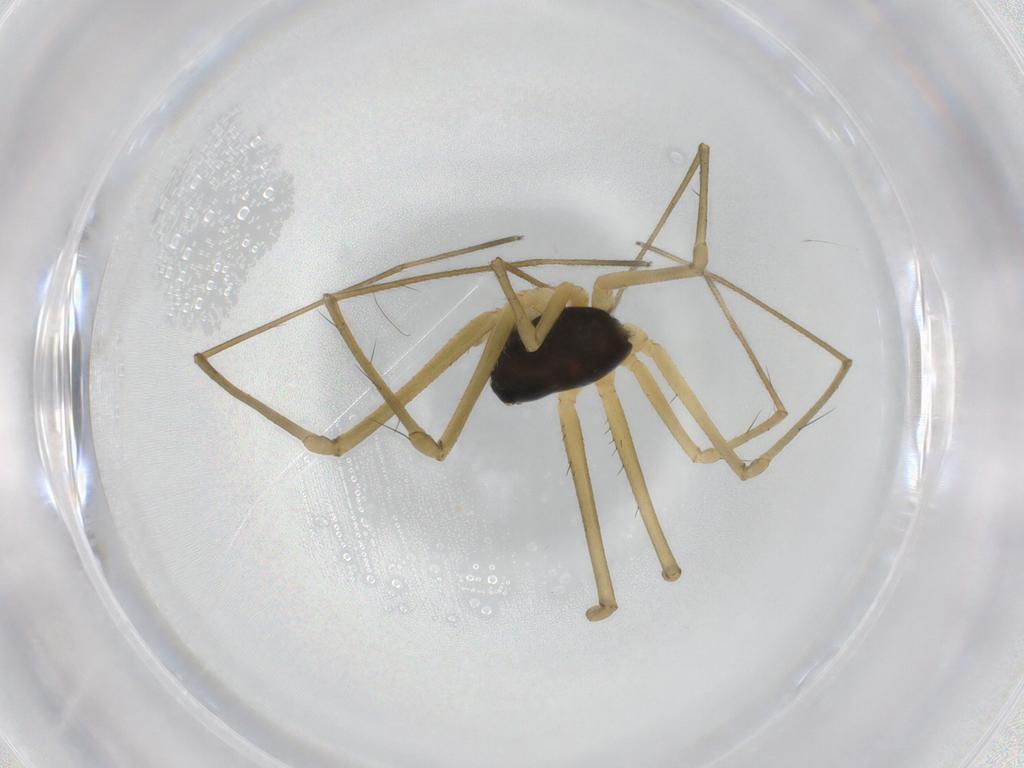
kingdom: Animalia
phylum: Arthropoda
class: Arachnida
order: Araneae
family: Linyphiidae
